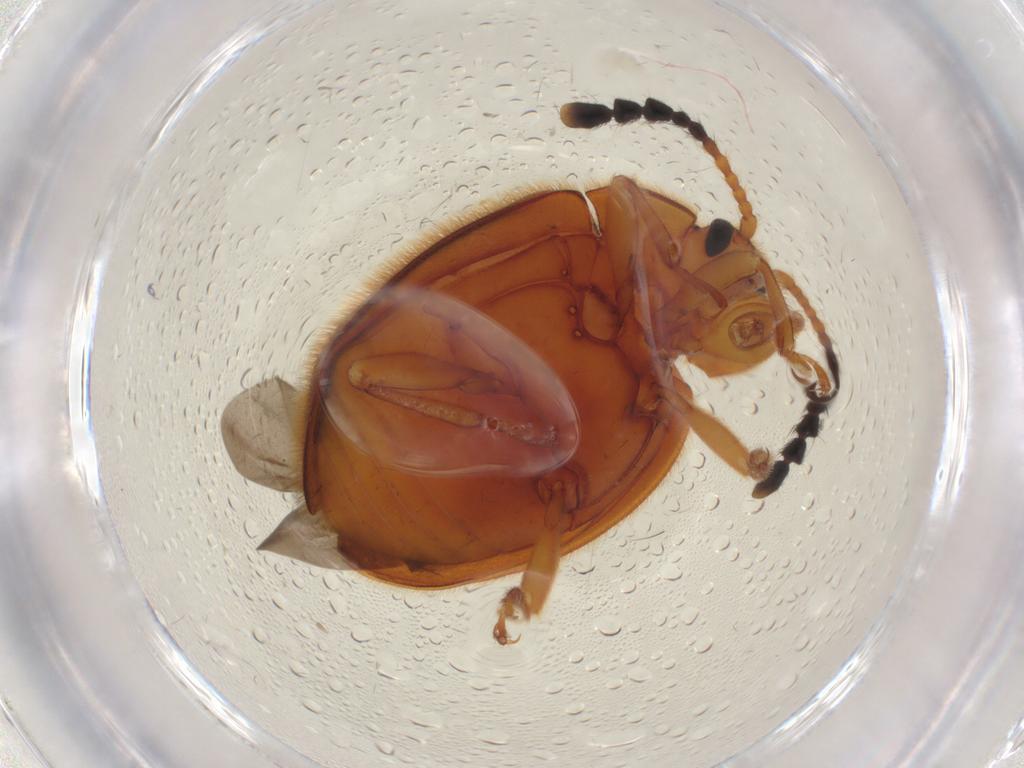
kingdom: Animalia
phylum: Arthropoda
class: Insecta
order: Coleoptera
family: Endomychidae
